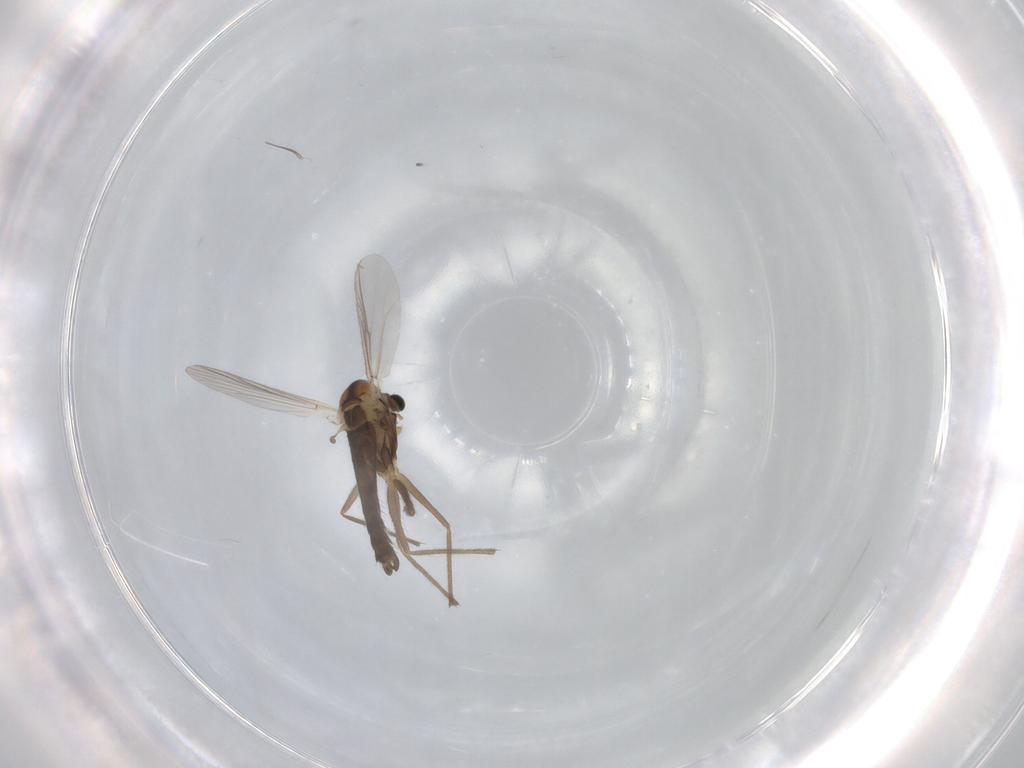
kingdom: Animalia
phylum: Arthropoda
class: Insecta
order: Diptera
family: Chironomidae
